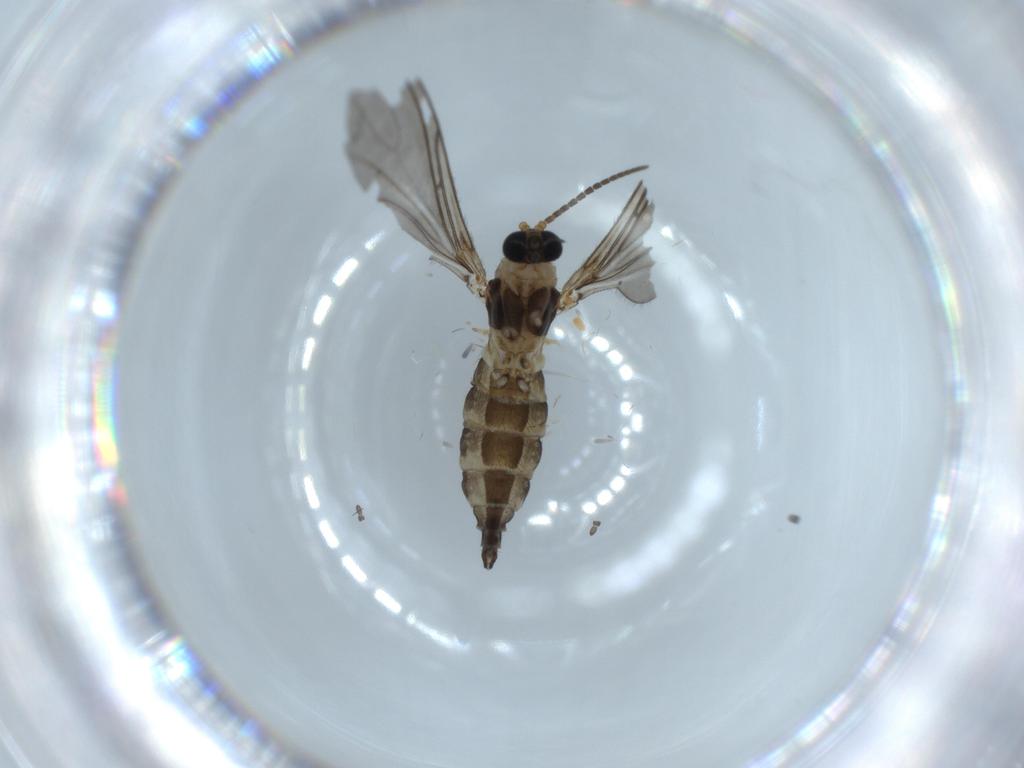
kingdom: Animalia
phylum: Arthropoda
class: Insecta
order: Diptera
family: Sciaridae
